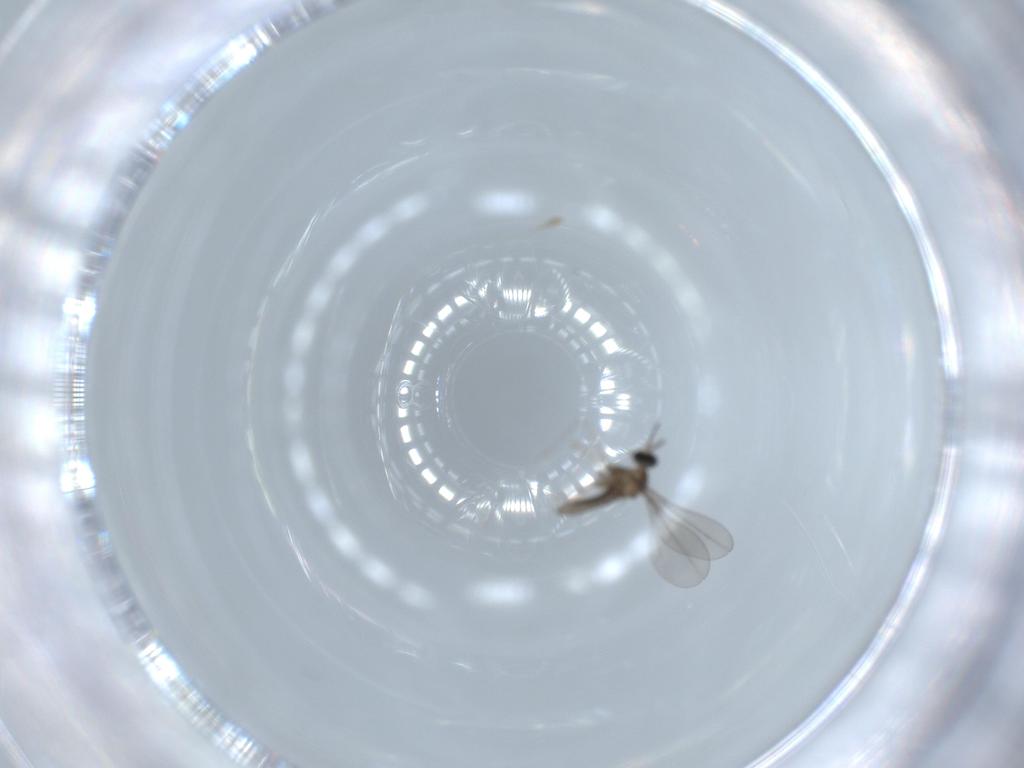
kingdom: Animalia
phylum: Arthropoda
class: Insecta
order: Diptera
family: Cecidomyiidae
